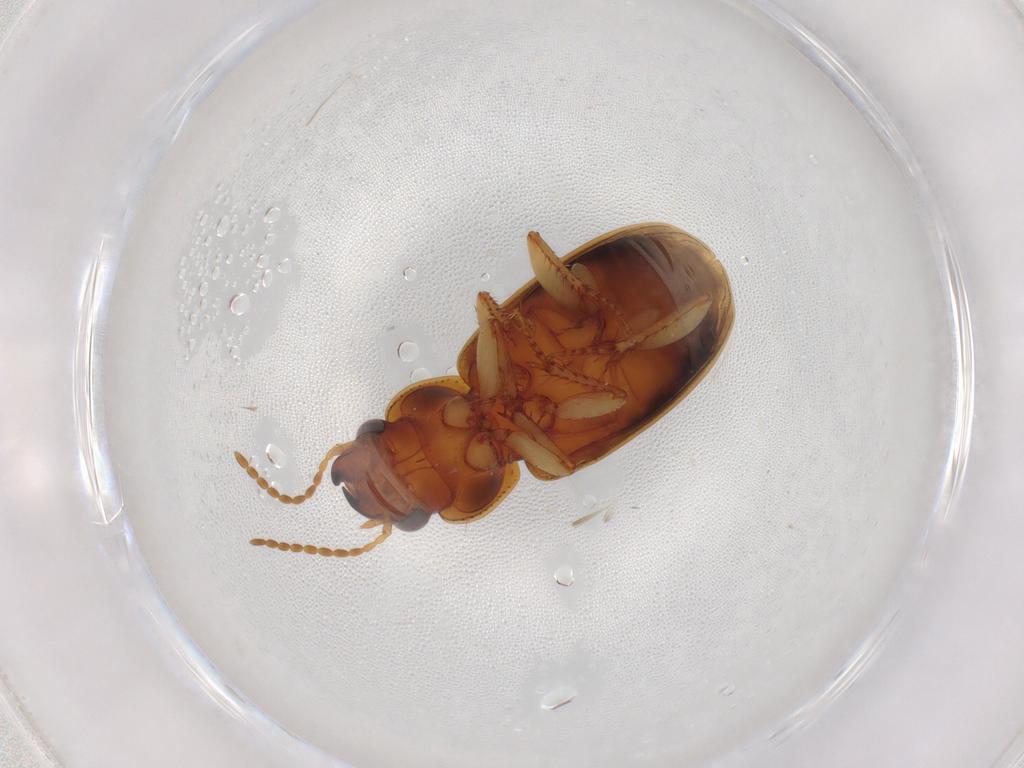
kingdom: Animalia
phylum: Arthropoda
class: Insecta
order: Coleoptera
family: Carabidae
